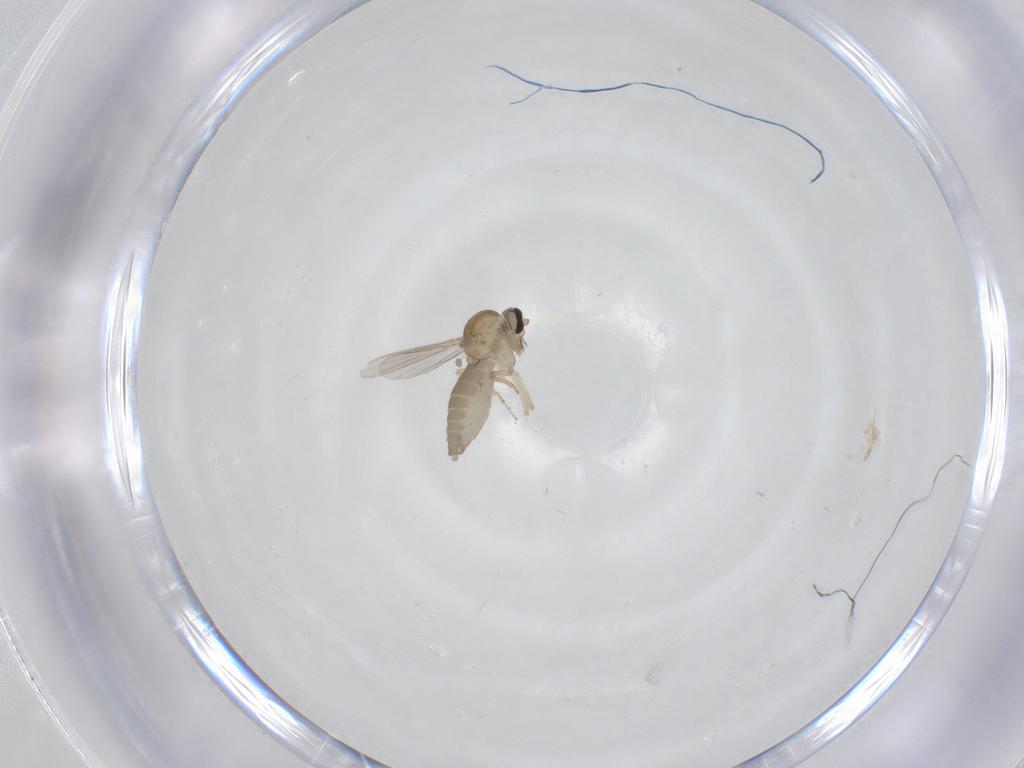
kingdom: Animalia
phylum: Arthropoda
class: Insecta
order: Diptera
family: Ceratopogonidae
